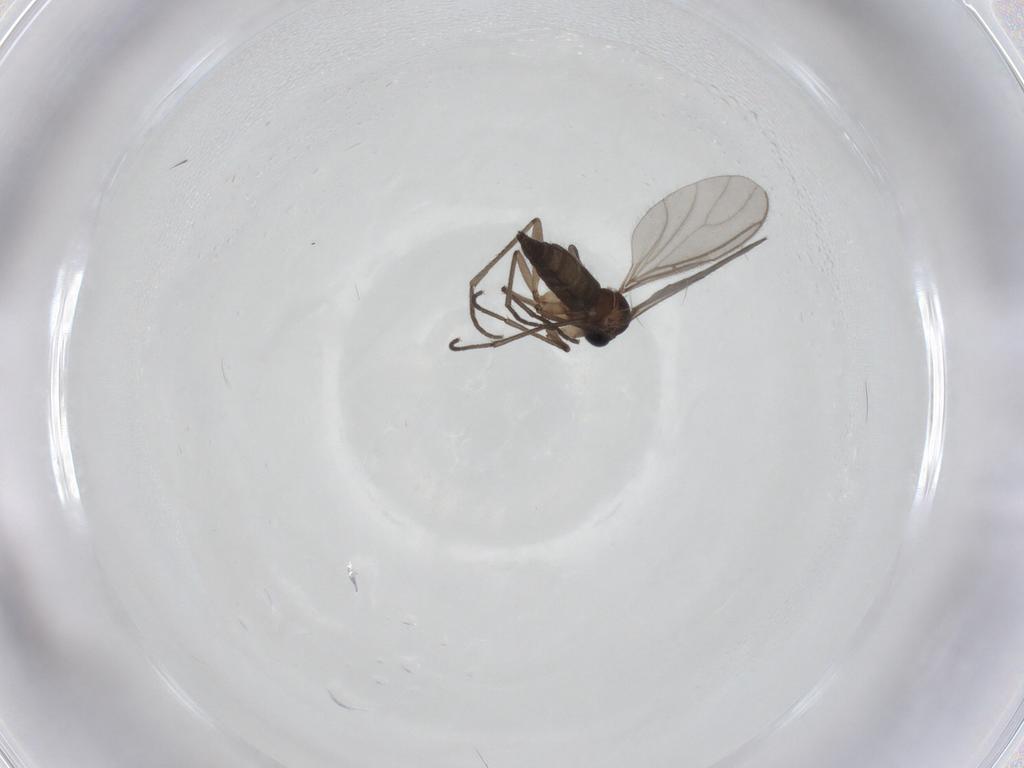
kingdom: Animalia
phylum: Arthropoda
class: Insecta
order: Diptera
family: Sciaridae
